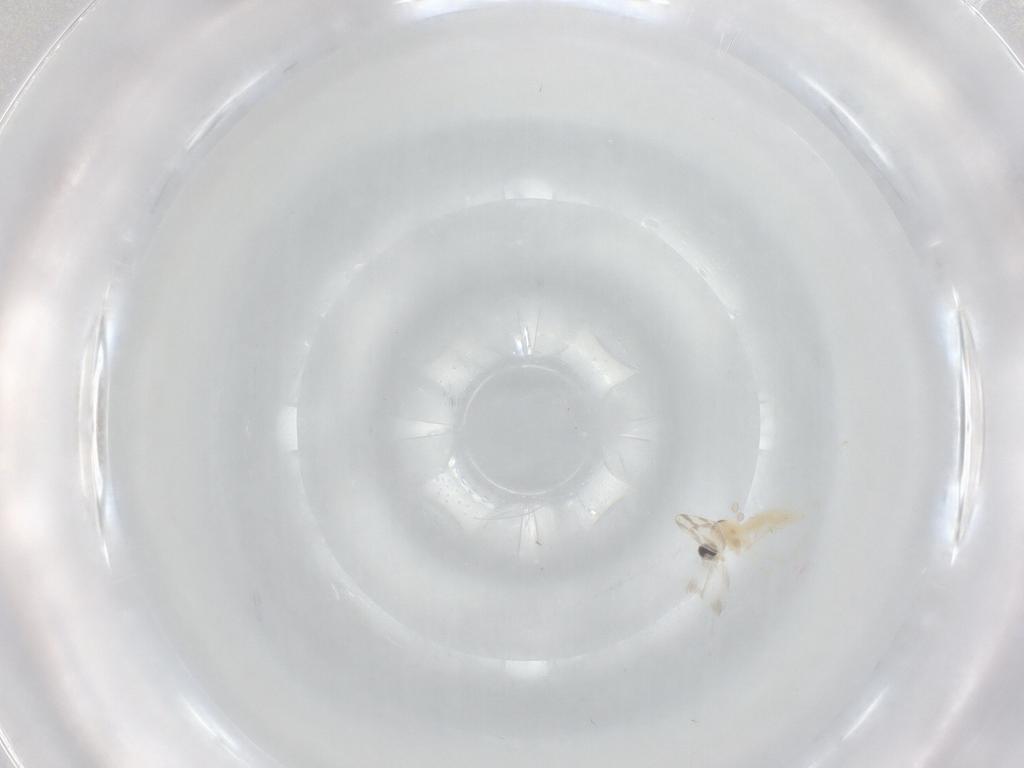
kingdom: Animalia
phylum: Arthropoda
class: Insecta
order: Diptera
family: Cecidomyiidae
